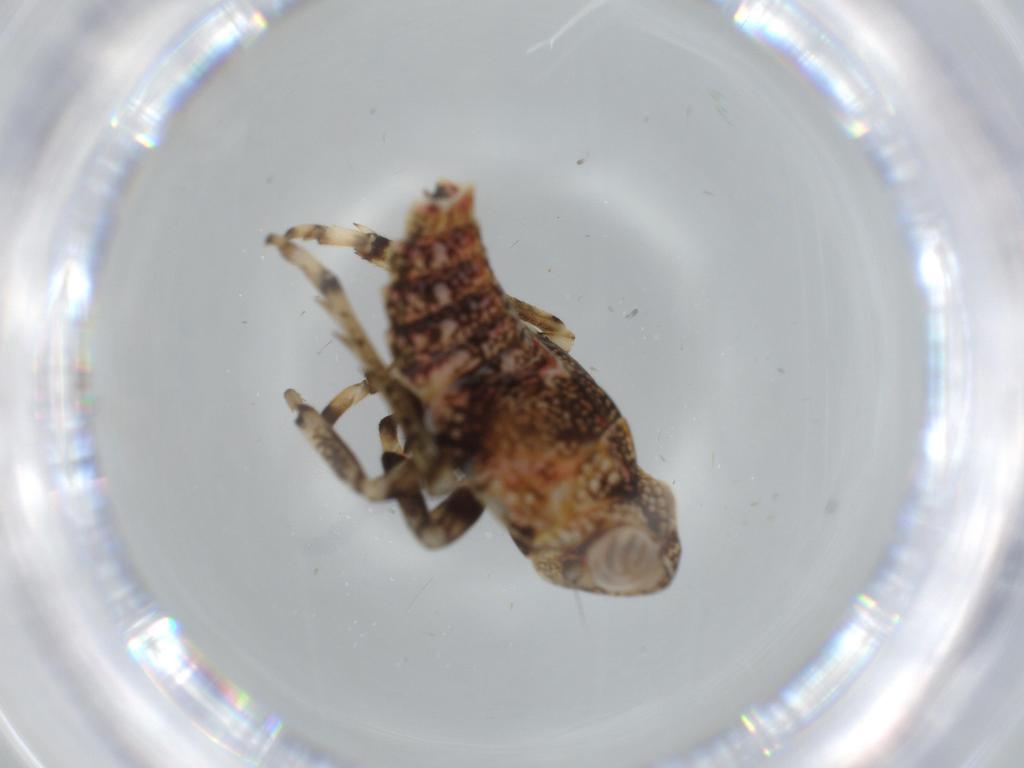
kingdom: Animalia
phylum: Arthropoda
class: Insecta
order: Hemiptera
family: Issidae
